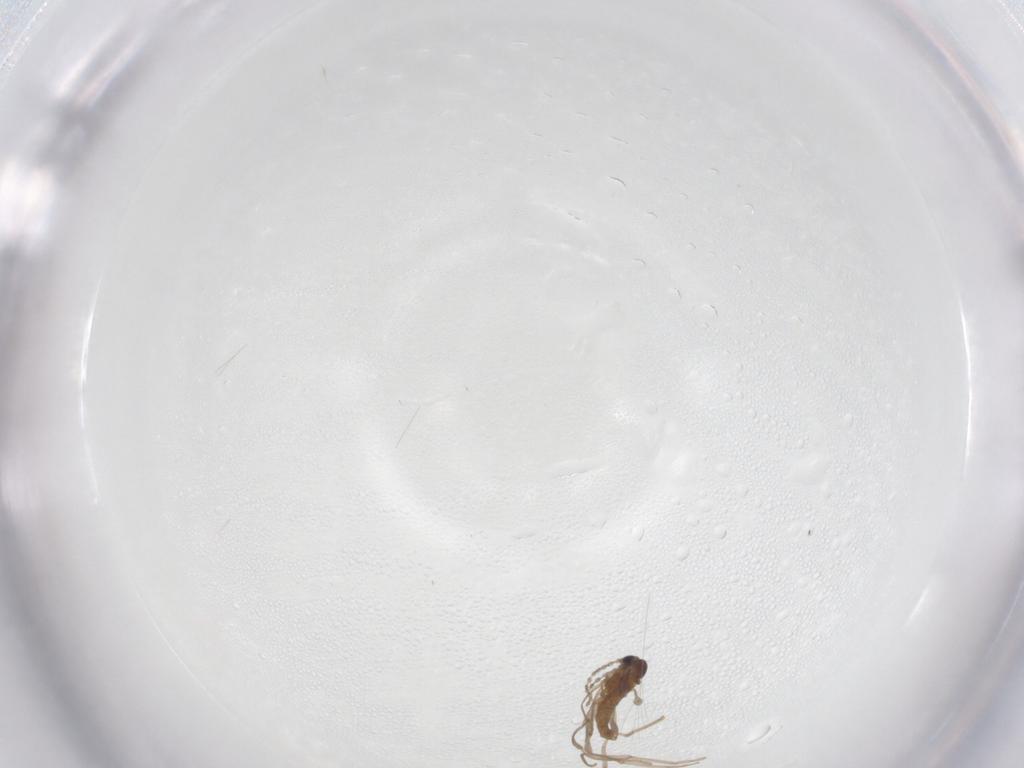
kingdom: Animalia
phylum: Arthropoda
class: Insecta
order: Diptera
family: Cecidomyiidae
